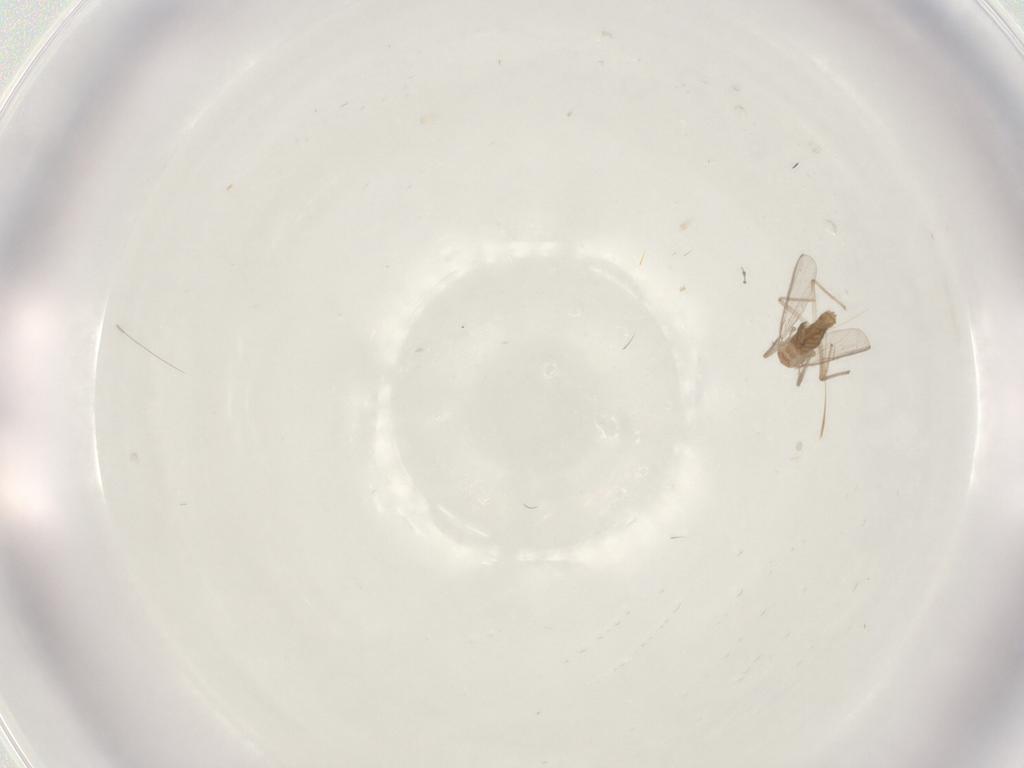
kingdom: Animalia
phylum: Arthropoda
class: Insecta
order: Diptera
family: Chironomidae
